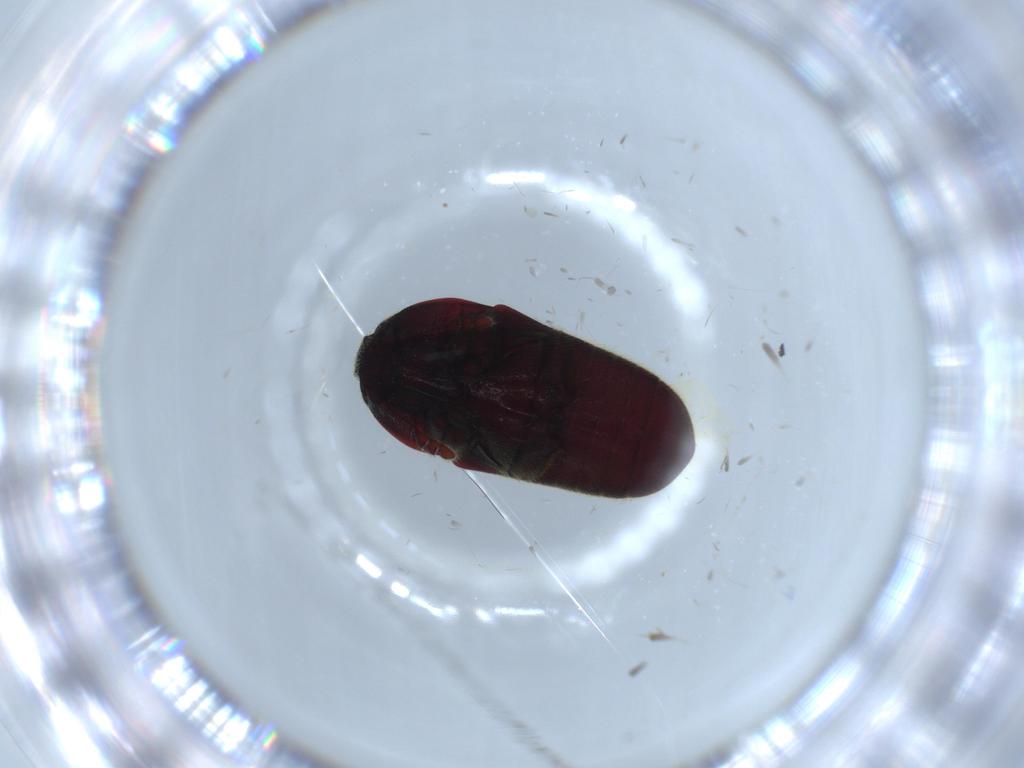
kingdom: Animalia
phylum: Arthropoda
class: Insecta
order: Coleoptera
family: Throscidae
